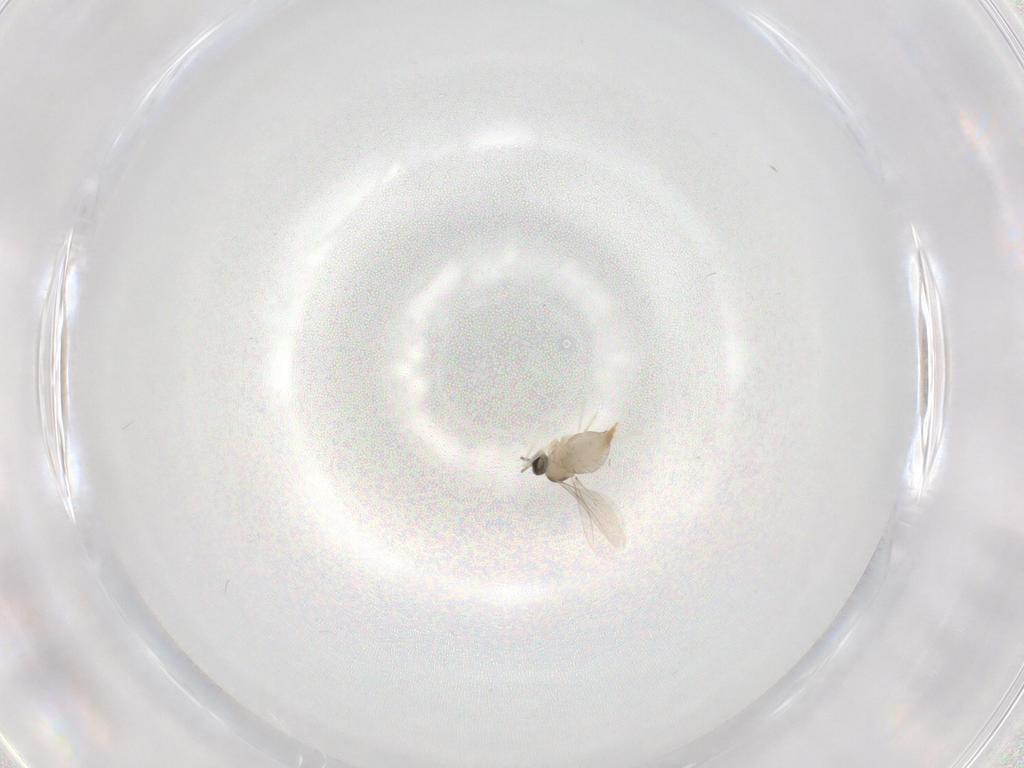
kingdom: Animalia
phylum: Arthropoda
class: Insecta
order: Diptera
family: Cecidomyiidae
